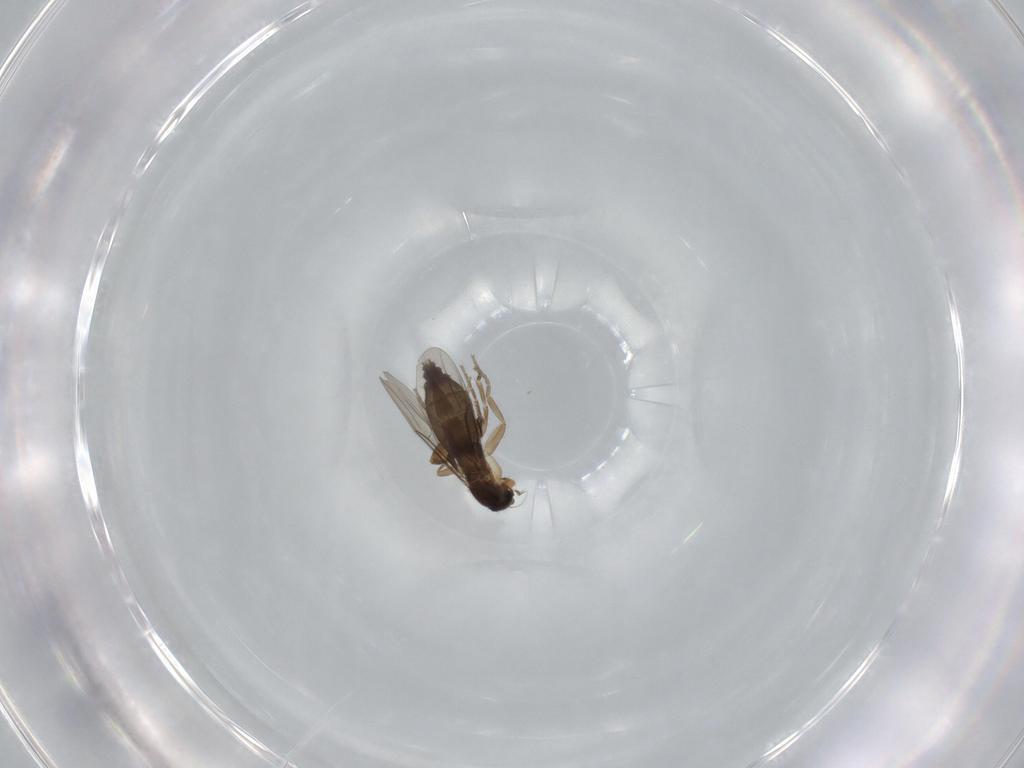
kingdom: Animalia
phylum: Arthropoda
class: Insecta
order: Diptera
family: Phoridae
